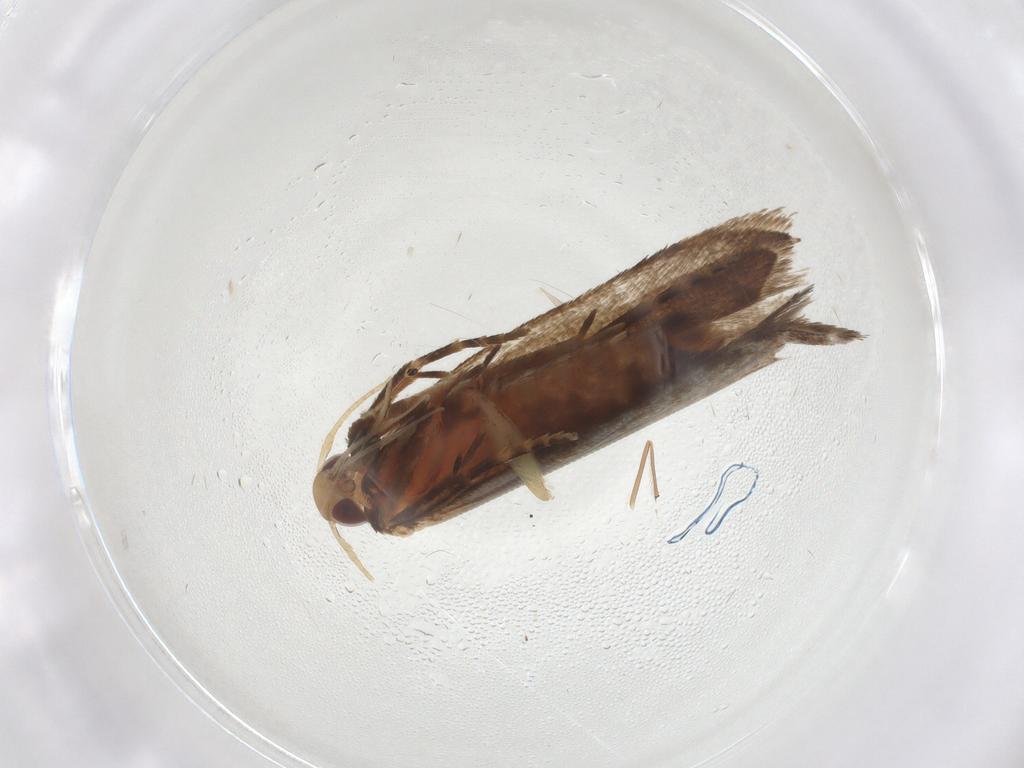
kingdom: Animalia
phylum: Arthropoda
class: Insecta
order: Lepidoptera
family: Gelechiidae
